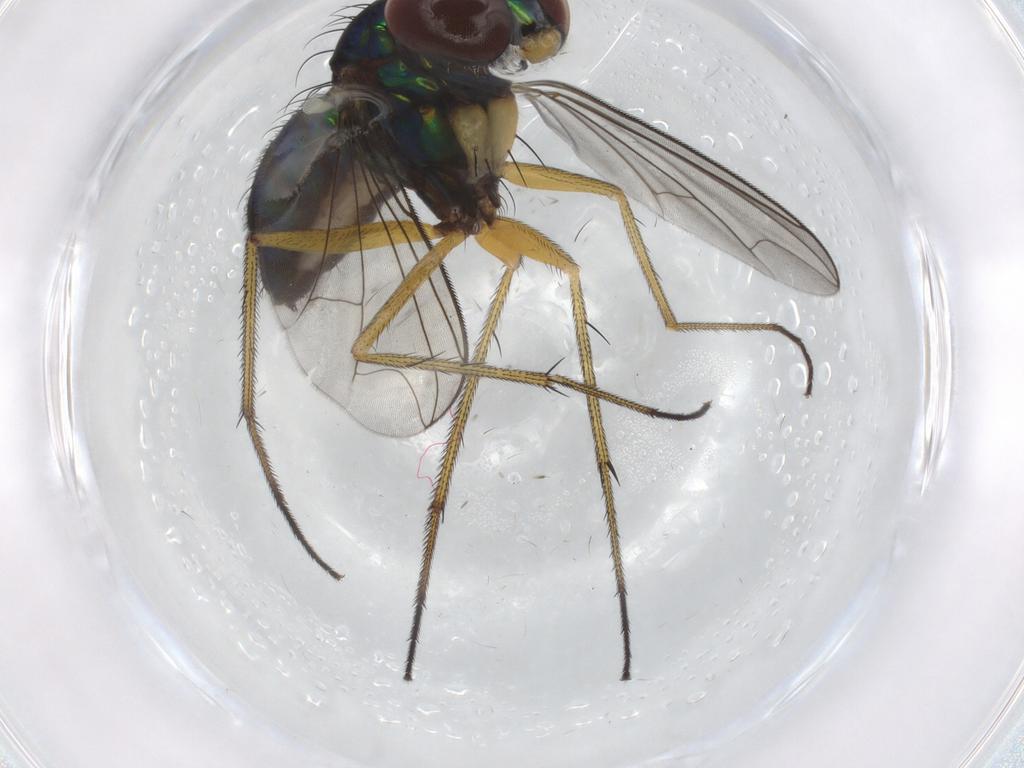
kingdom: Animalia
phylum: Arthropoda
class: Insecta
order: Diptera
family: Dolichopodidae
